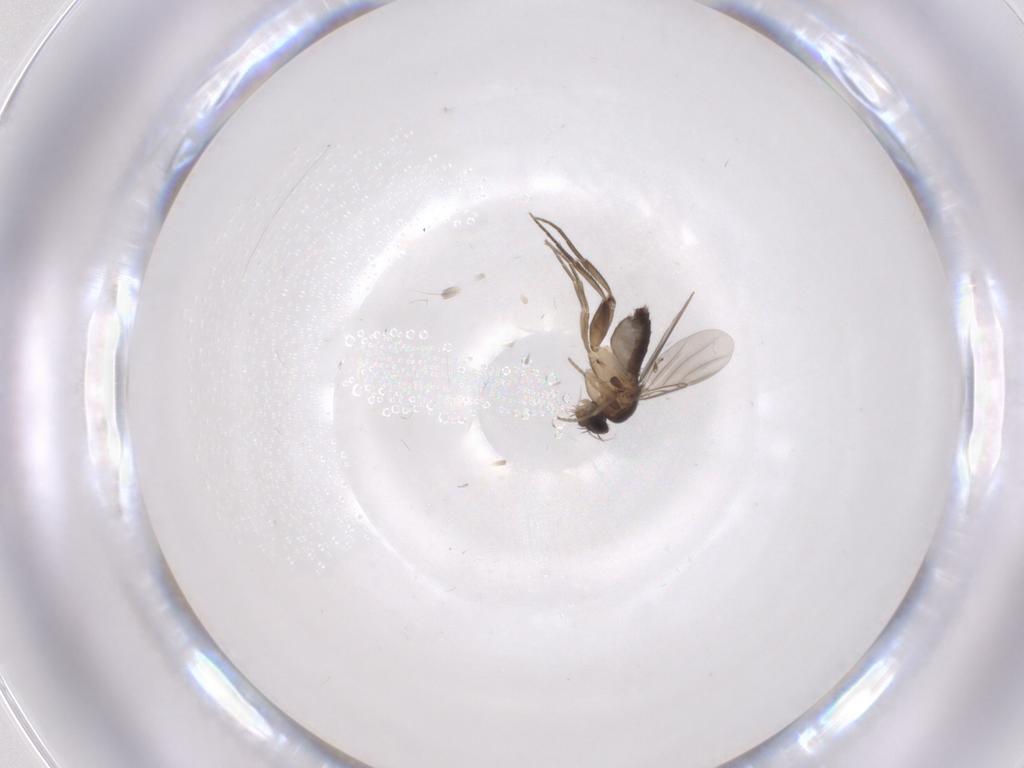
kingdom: Animalia
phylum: Arthropoda
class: Insecta
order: Diptera
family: Phoridae
